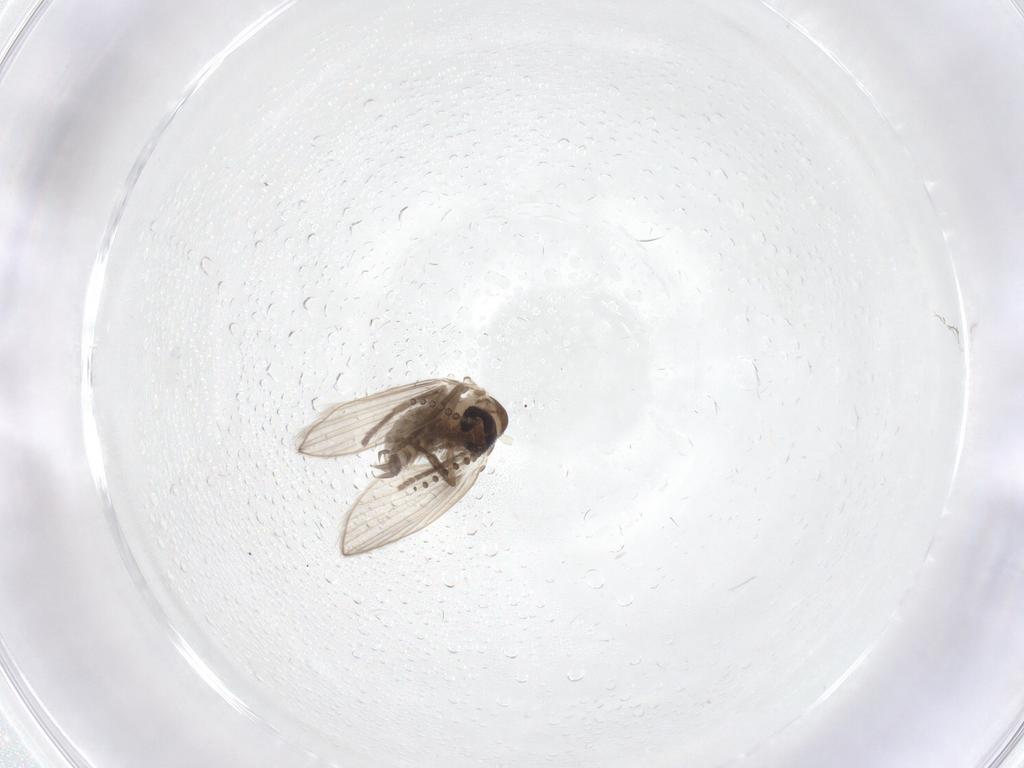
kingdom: Animalia
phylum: Arthropoda
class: Insecta
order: Diptera
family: Psychodidae
